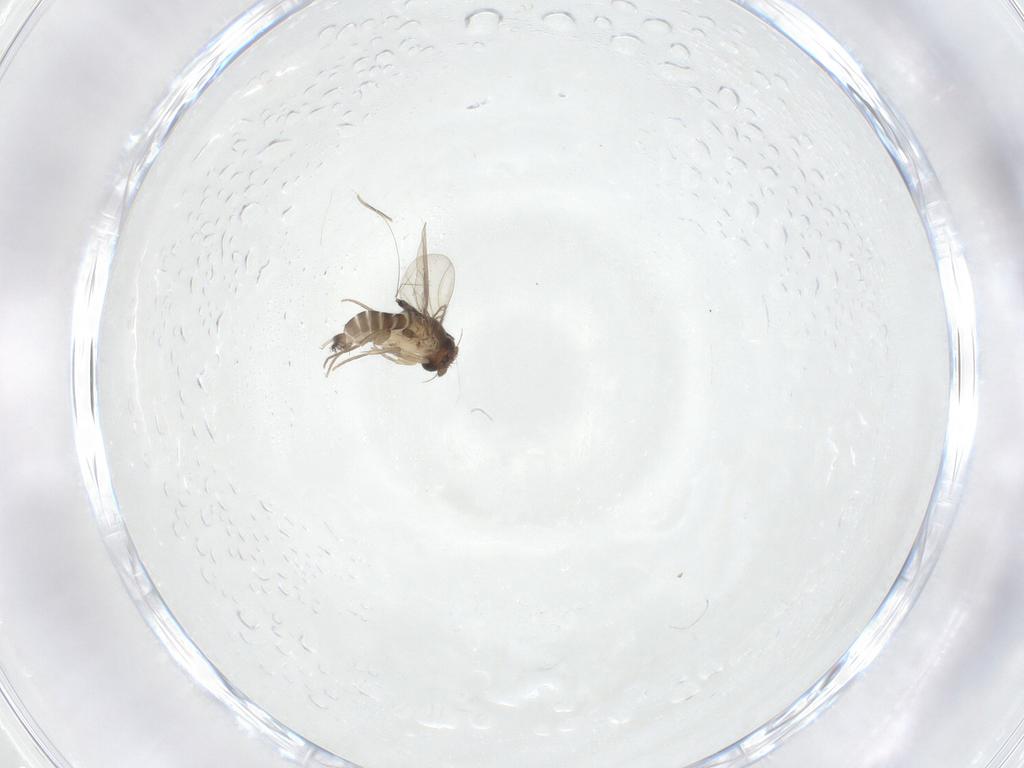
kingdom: Animalia
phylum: Arthropoda
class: Insecta
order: Diptera
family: Phoridae
